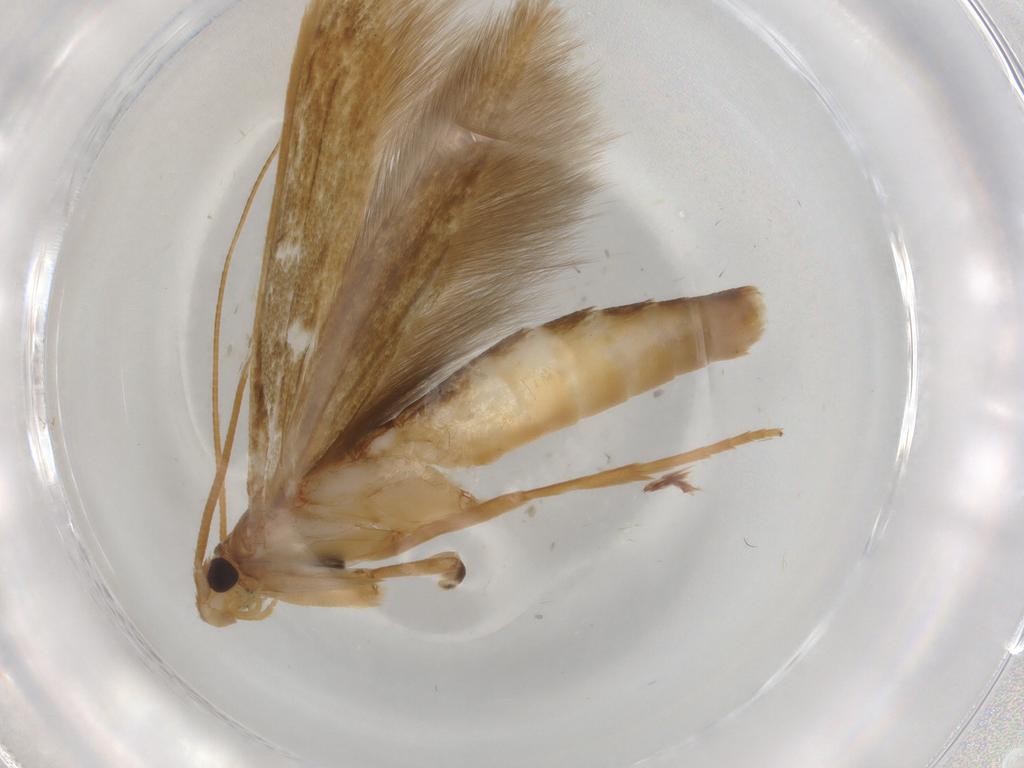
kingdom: Animalia
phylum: Arthropoda
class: Insecta
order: Lepidoptera
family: Tineidae
